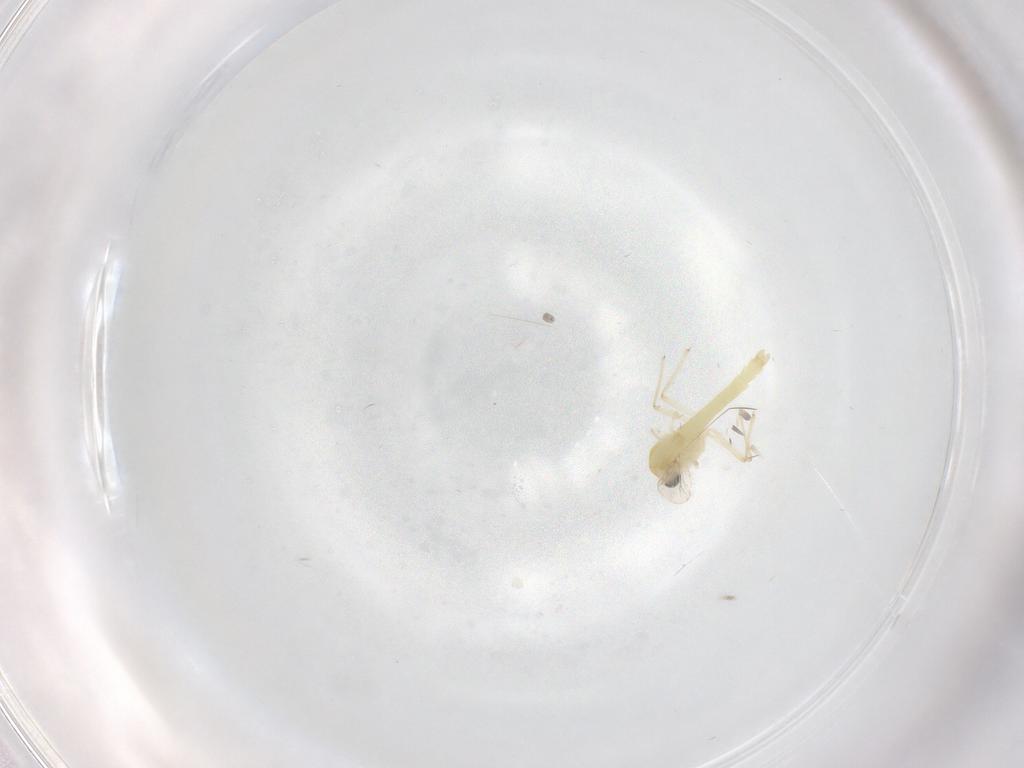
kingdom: Animalia
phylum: Arthropoda
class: Insecta
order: Diptera
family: Chironomidae
